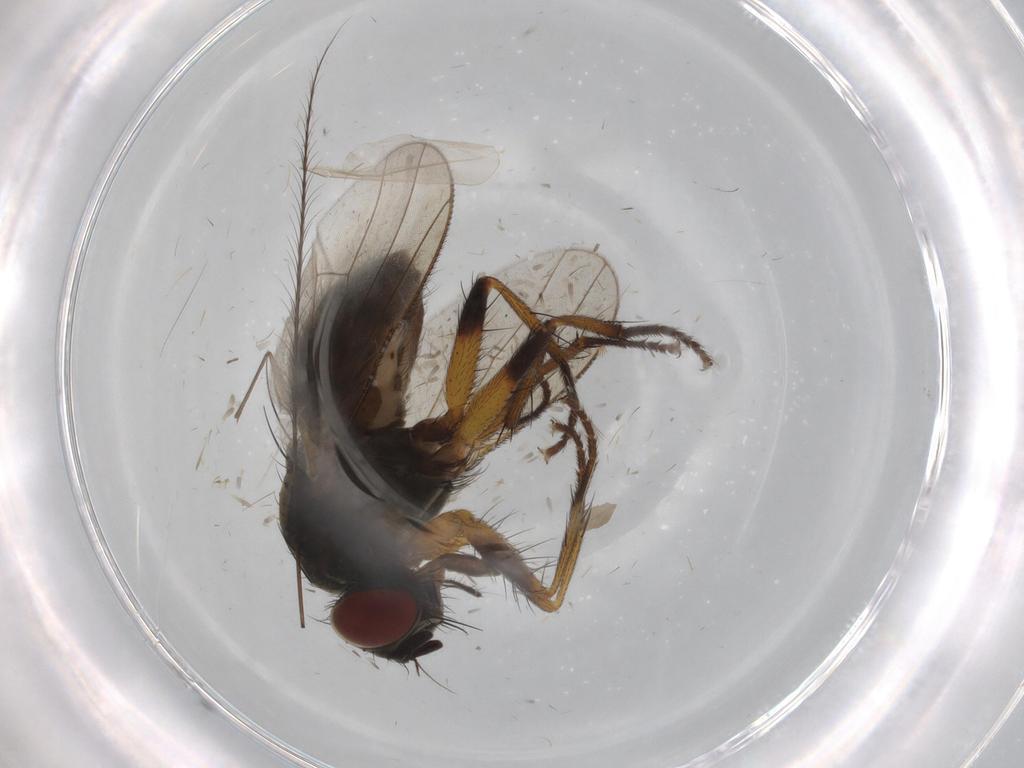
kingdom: Animalia
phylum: Arthropoda
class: Insecta
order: Diptera
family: Muscidae
